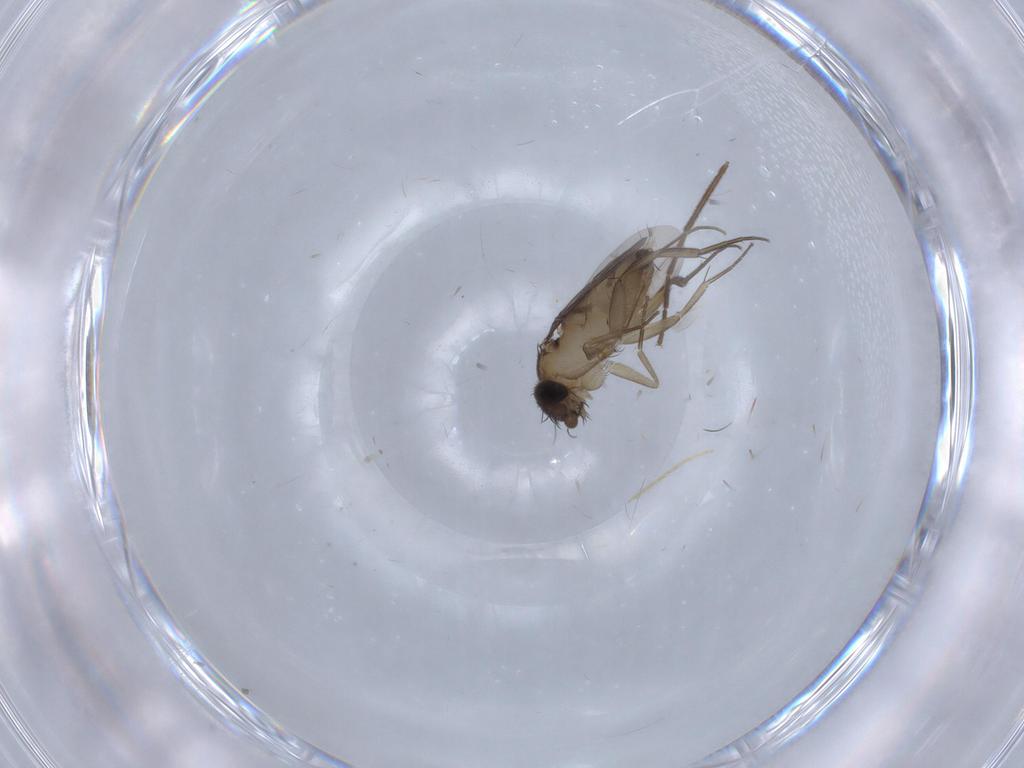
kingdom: Animalia
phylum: Arthropoda
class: Insecta
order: Diptera
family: Phoridae
